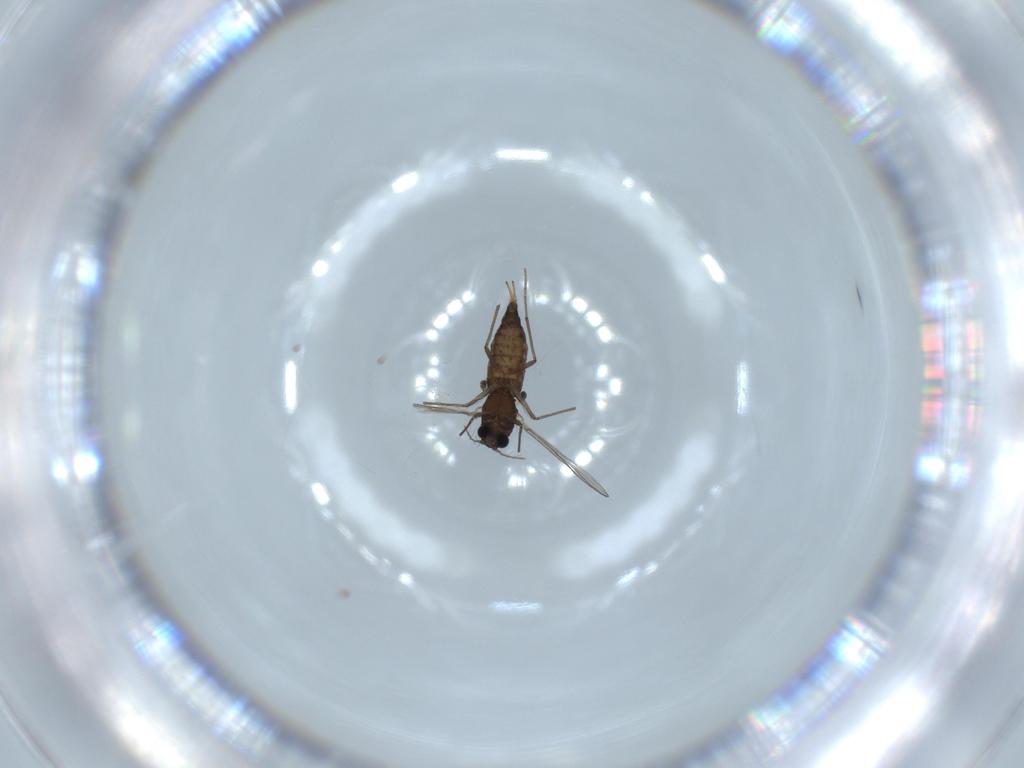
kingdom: Animalia
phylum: Arthropoda
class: Insecta
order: Diptera
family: Chironomidae
